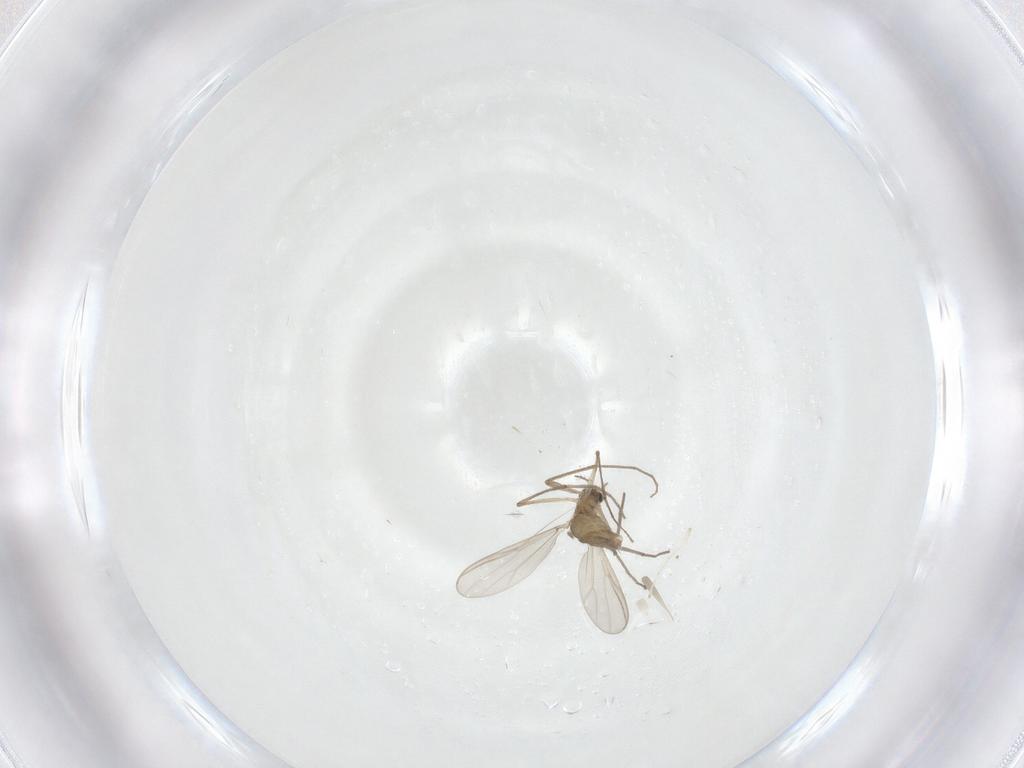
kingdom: Animalia
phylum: Arthropoda
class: Insecta
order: Diptera
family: Chironomidae
